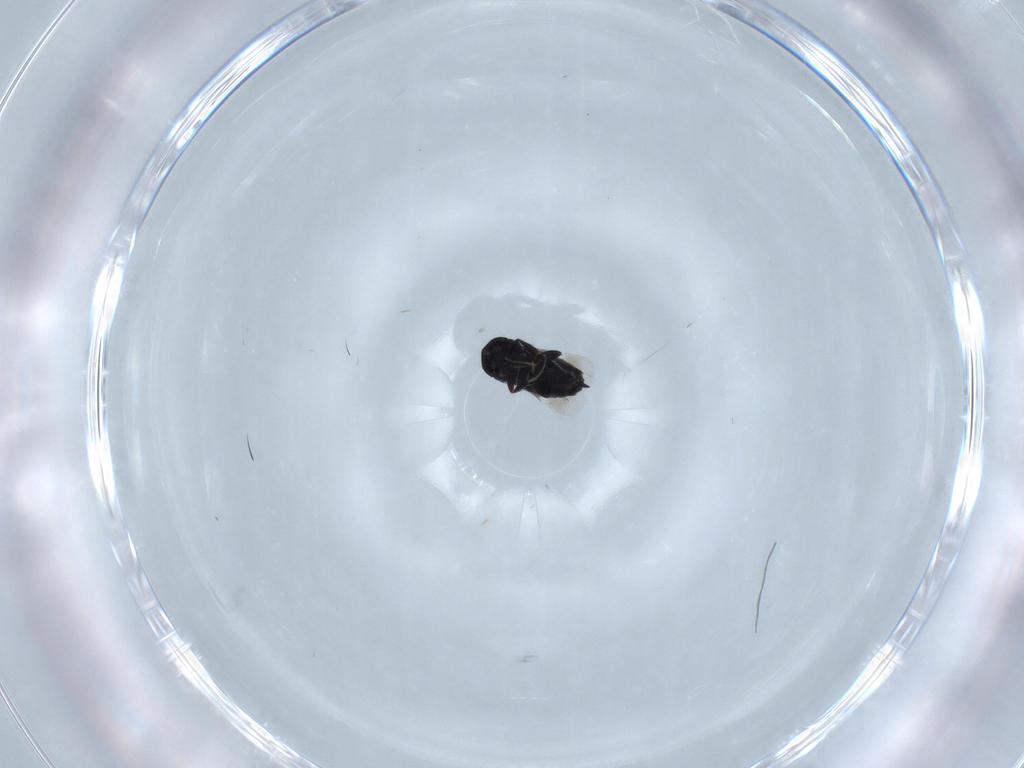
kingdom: Animalia
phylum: Arthropoda
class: Insecta
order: Hymenoptera
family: Signiphoridae
